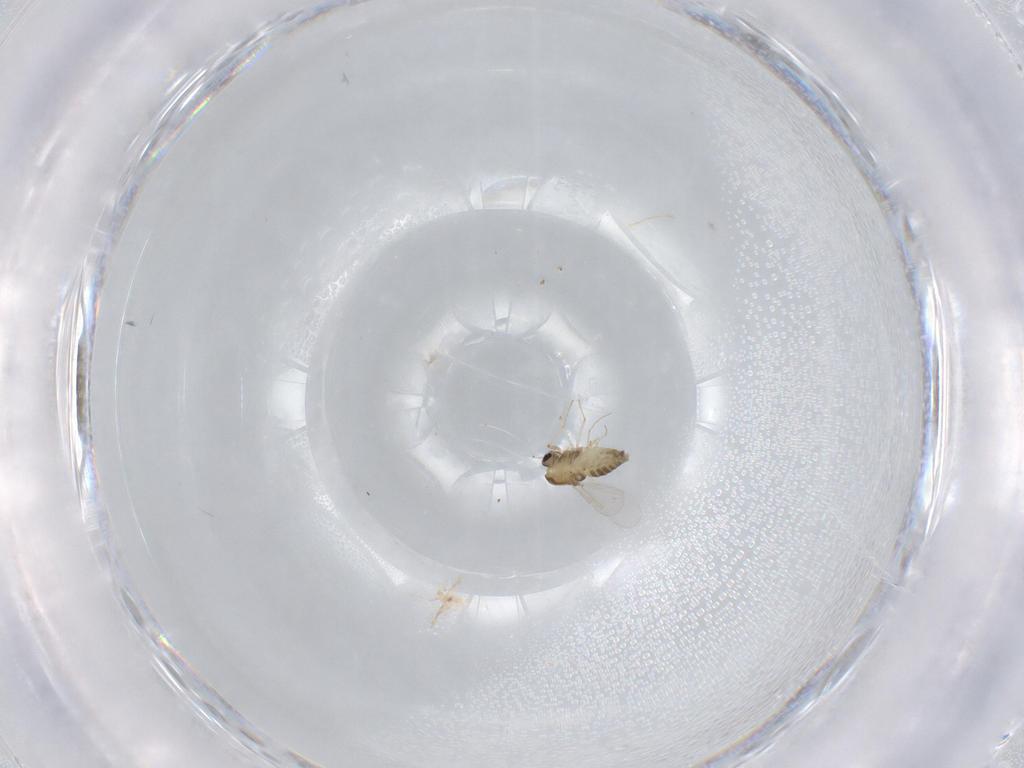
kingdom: Animalia
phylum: Arthropoda
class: Insecta
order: Diptera
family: Chironomidae
